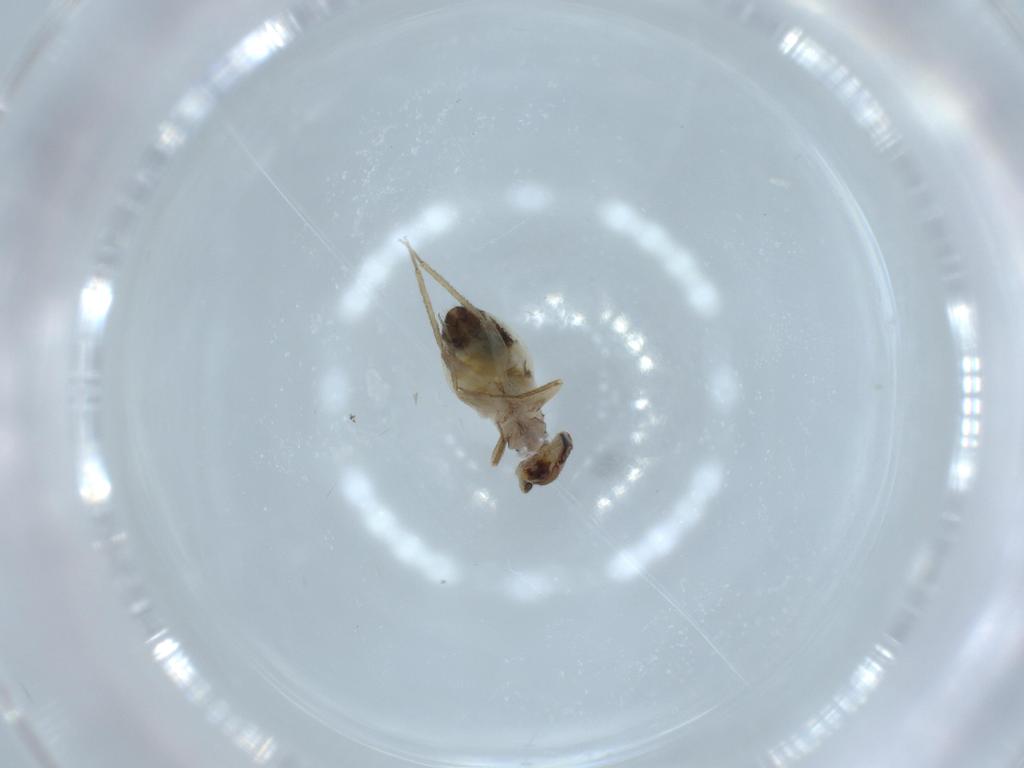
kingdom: Animalia
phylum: Arthropoda
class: Insecta
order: Psocodea
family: Lepidopsocidae
